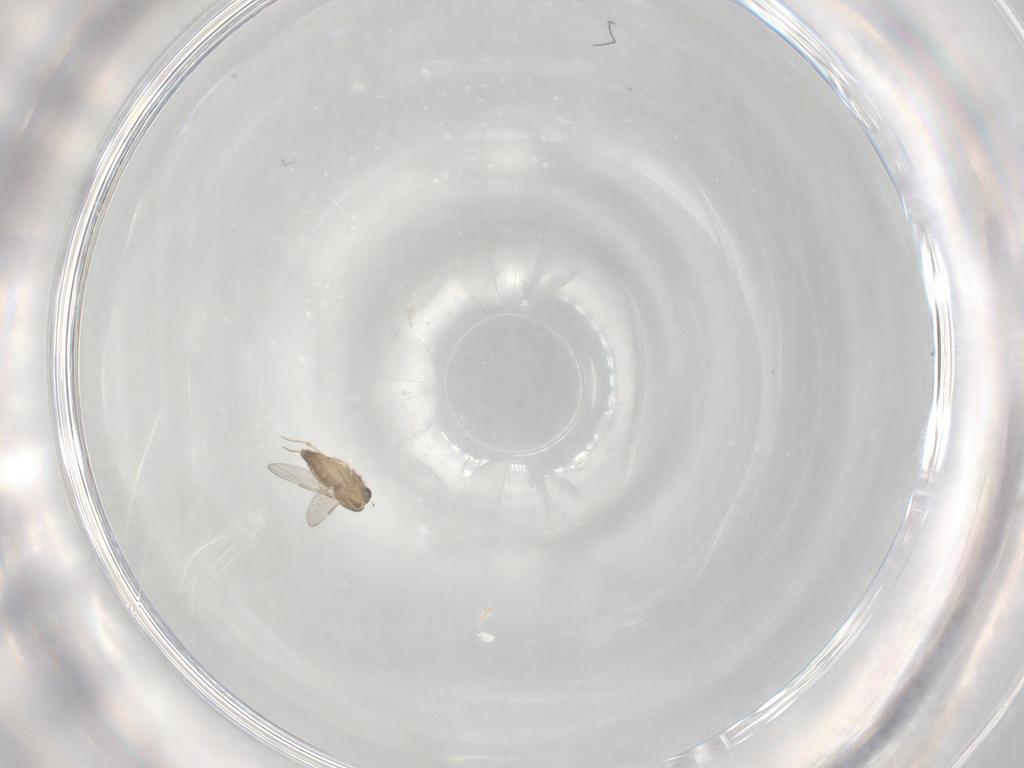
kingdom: Animalia
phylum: Arthropoda
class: Insecta
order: Diptera
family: Chironomidae
